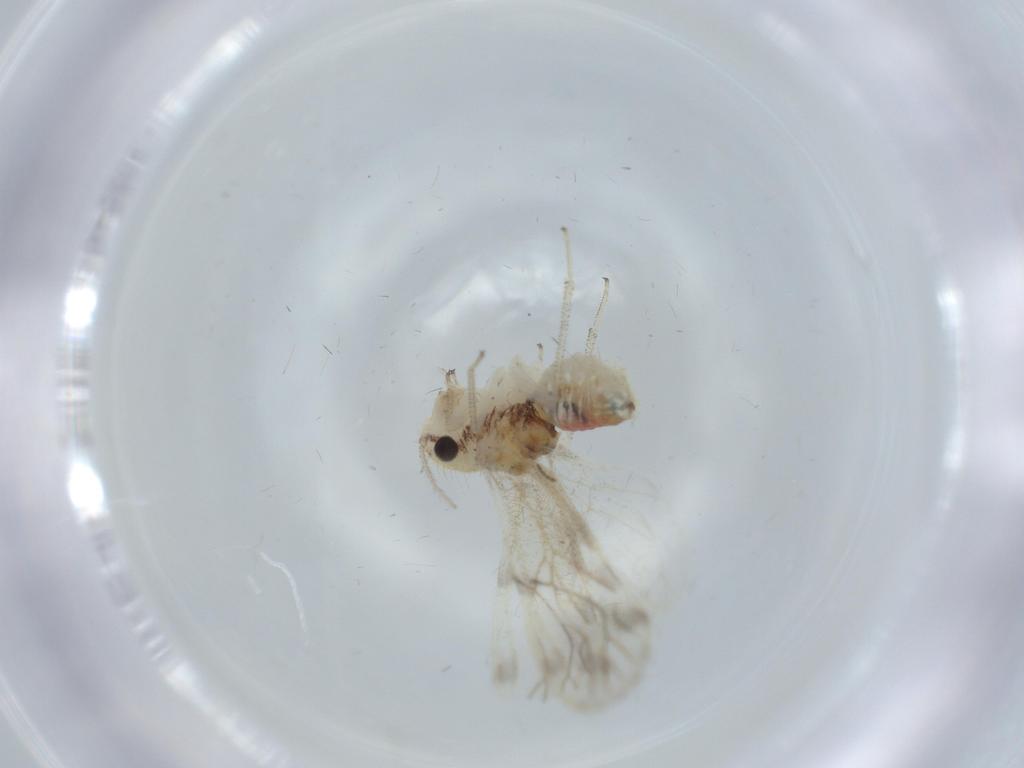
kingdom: Animalia
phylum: Arthropoda
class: Insecta
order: Psocodea
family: Pseudocaeciliidae
